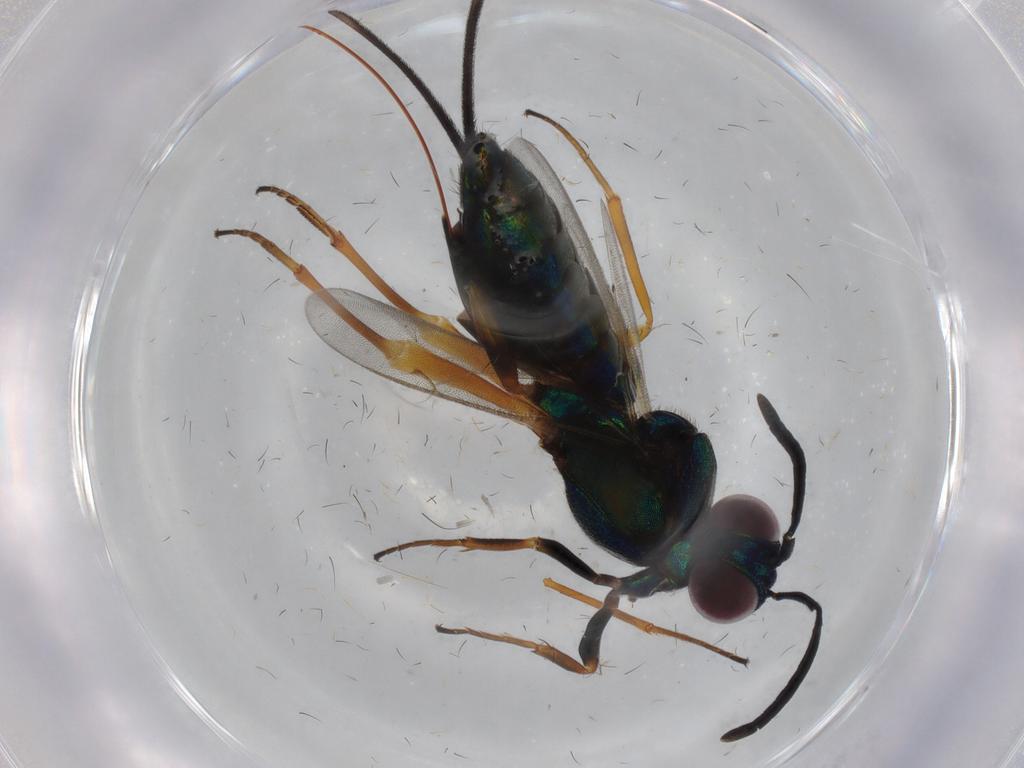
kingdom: Animalia
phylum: Arthropoda
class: Insecta
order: Hymenoptera
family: Eupelmidae
